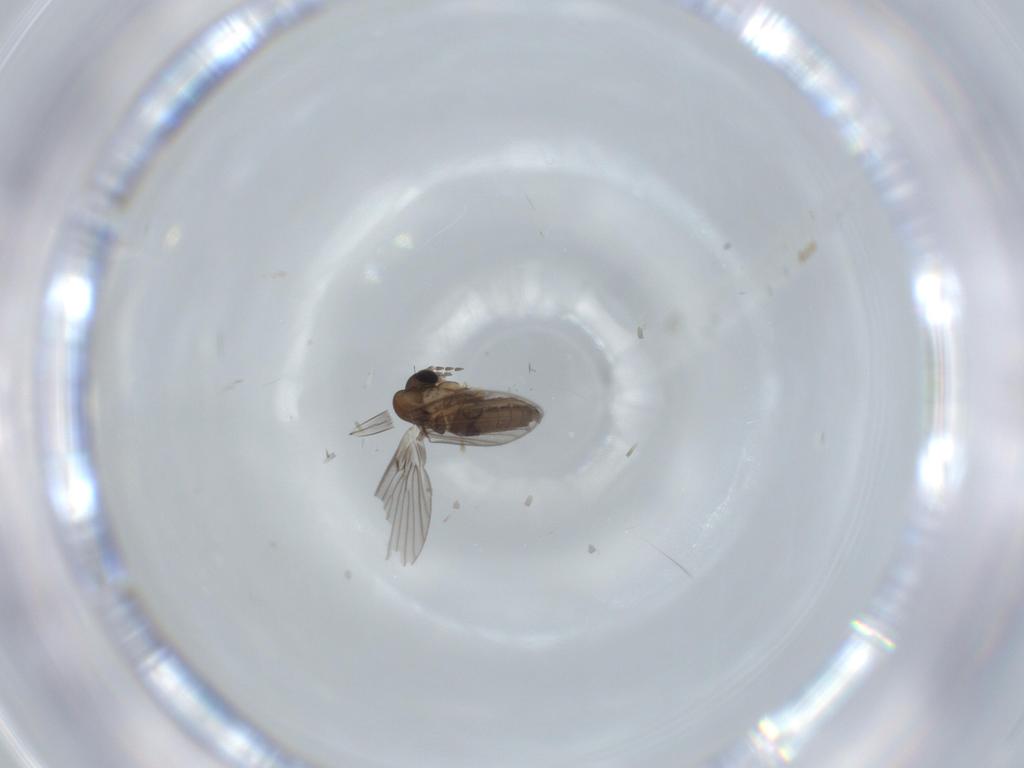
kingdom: Animalia
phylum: Arthropoda
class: Insecta
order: Diptera
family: Psychodidae
